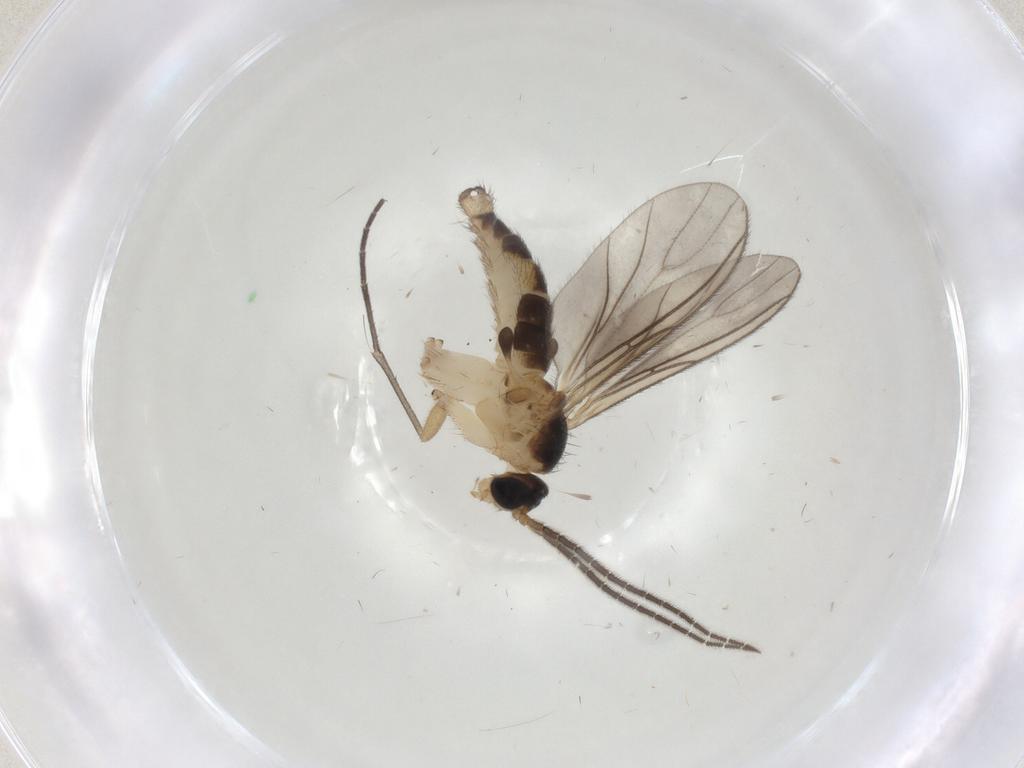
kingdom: Animalia
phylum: Arthropoda
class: Insecta
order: Diptera
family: Sciaridae
